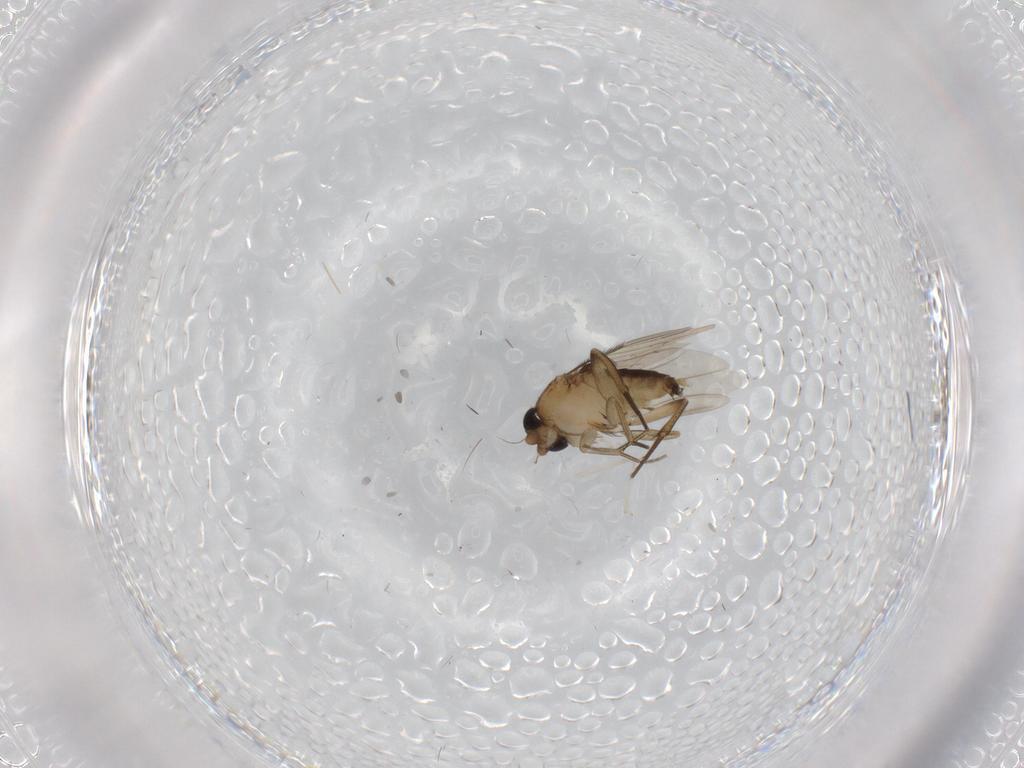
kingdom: Animalia
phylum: Arthropoda
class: Insecta
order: Diptera
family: Phoridae
